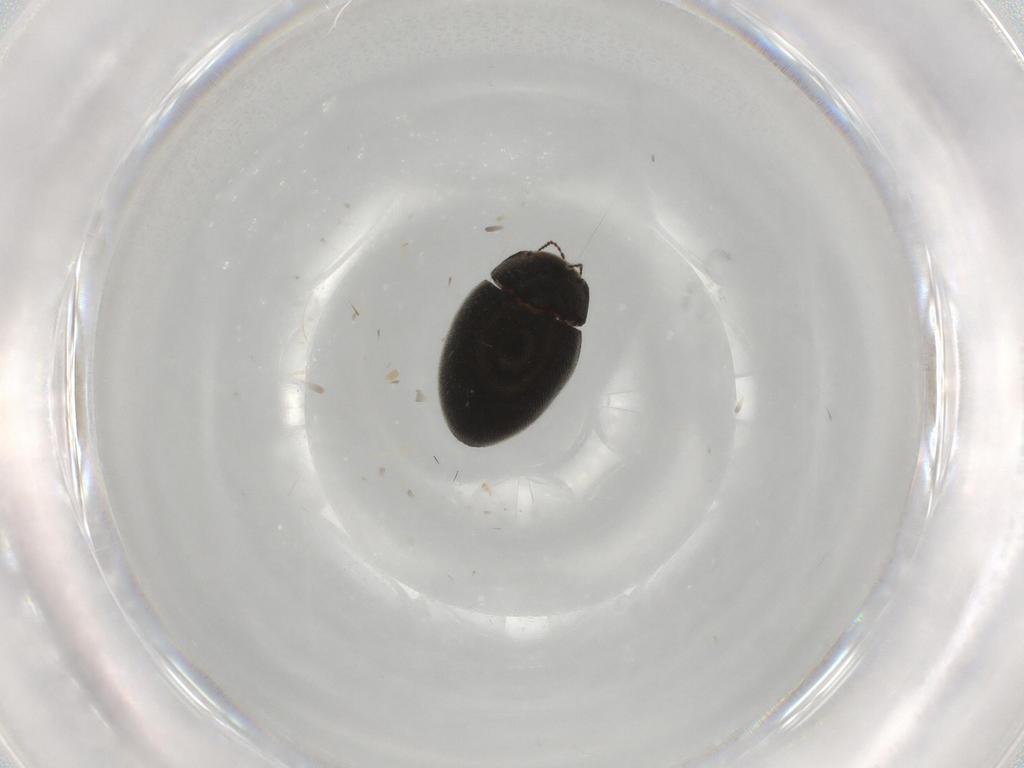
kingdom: Animalia
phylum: Arthropoda
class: Insecta
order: Coleoptera
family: Limnichidae
